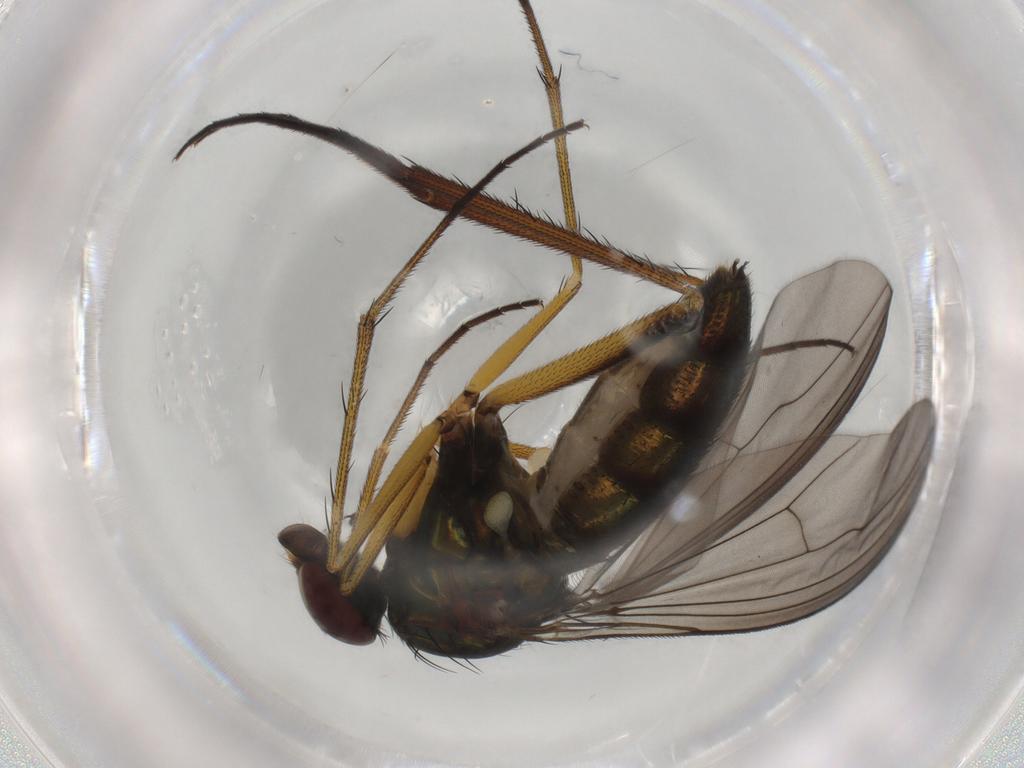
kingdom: Animalia
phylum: Arthropoda
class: Insecta
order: Diptera
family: Dolichopodidae
